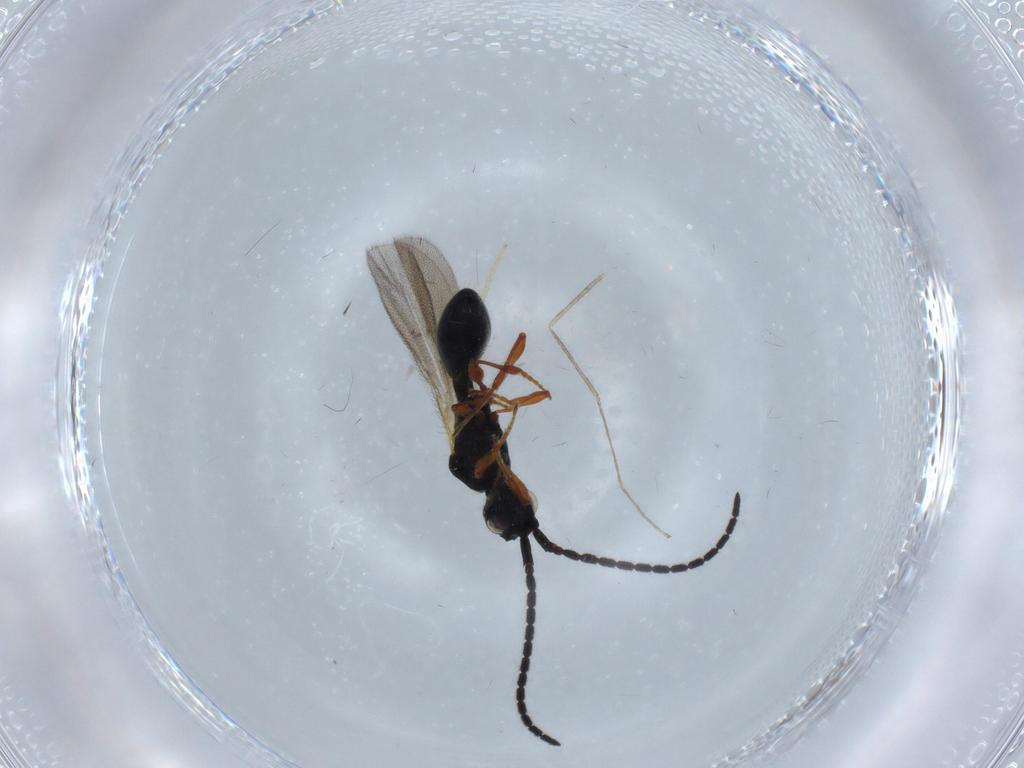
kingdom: Animalia
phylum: Arthropoda
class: Insecta
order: Hymenoptera
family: Diapriidae
